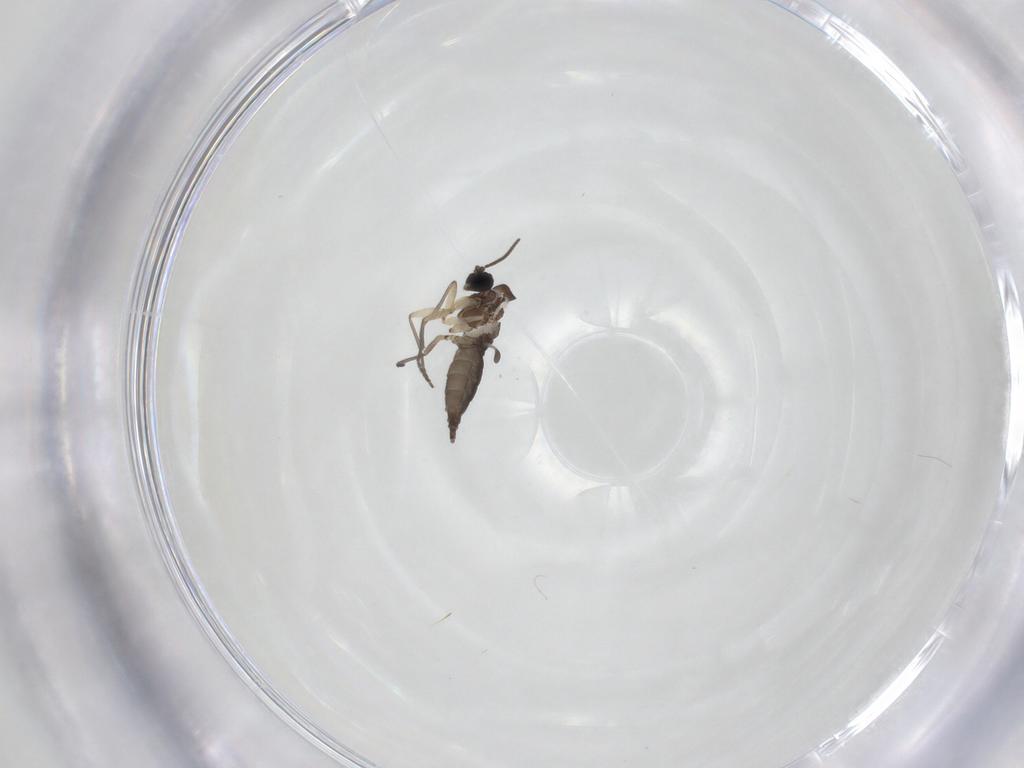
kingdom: Animalia
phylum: Arthropoda
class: Insecta
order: Diptera
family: Sciaridae
